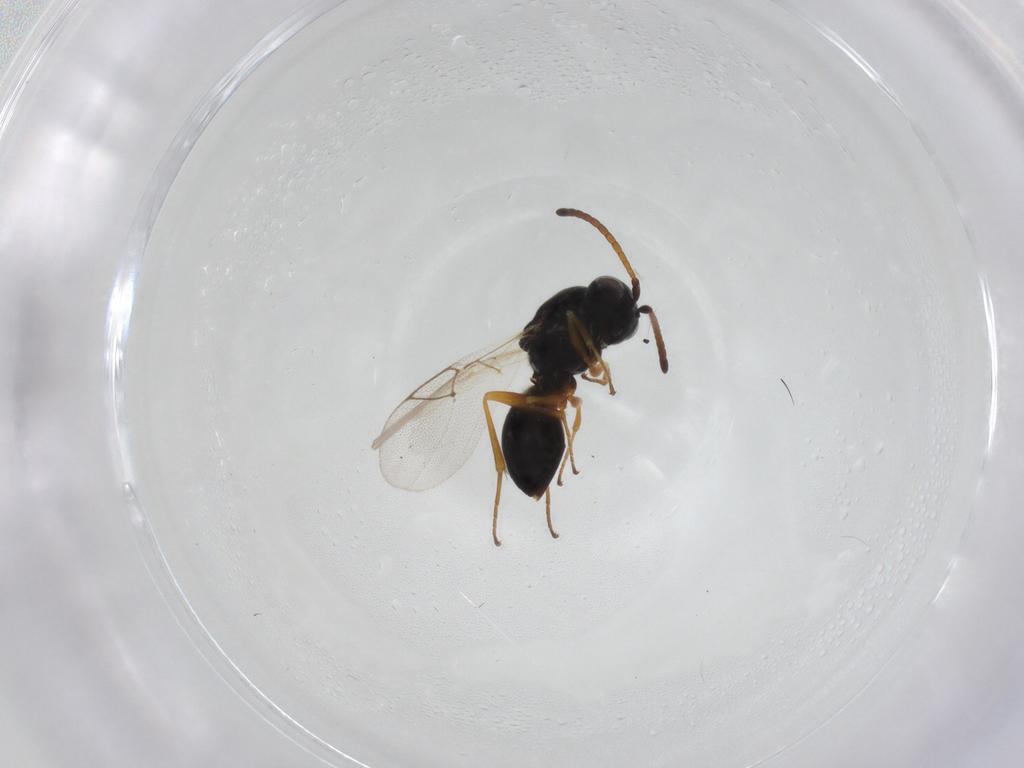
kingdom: Animalia
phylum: Arthropoda
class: Insecta
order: Hymenoptera
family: Figitidae
